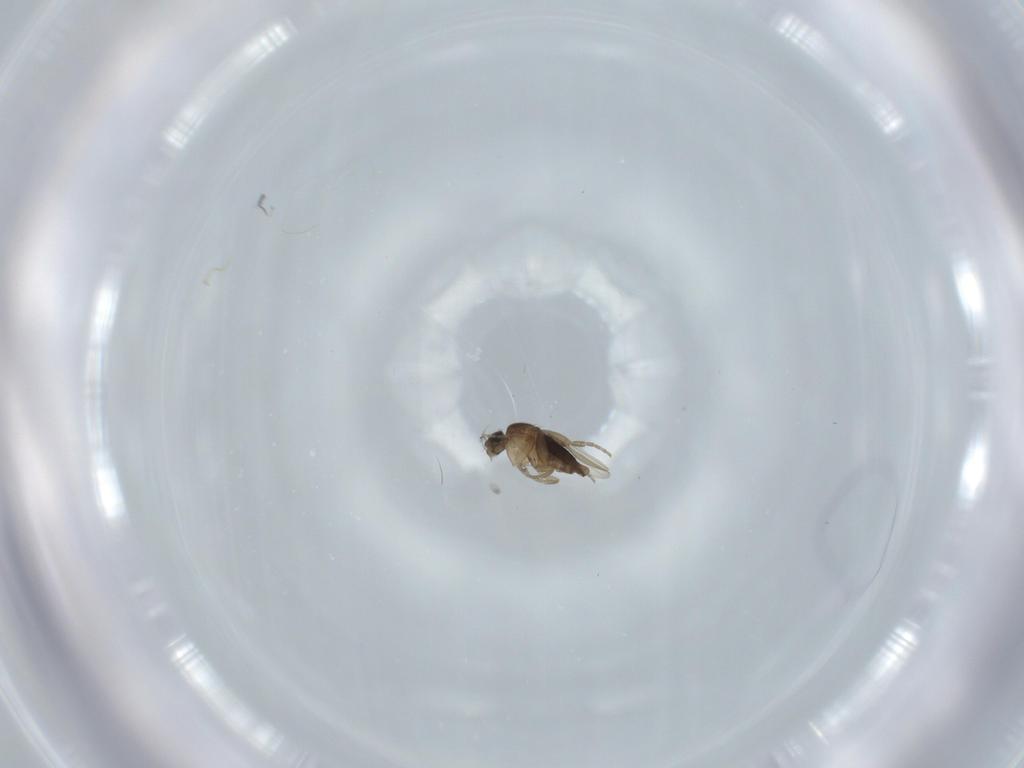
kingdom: Animalia
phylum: Arthropoda
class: Insecta
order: Diptera
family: Phoridae
